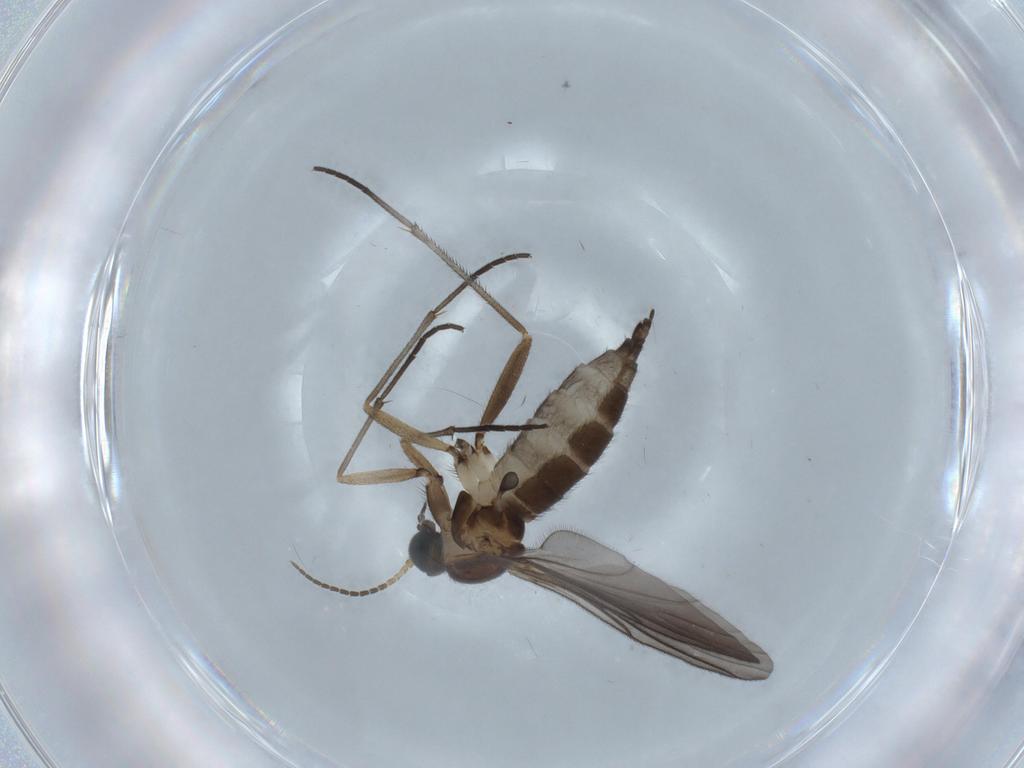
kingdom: Animalia
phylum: Arthropoda
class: Insecta
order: Diptera
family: Sciaridae
